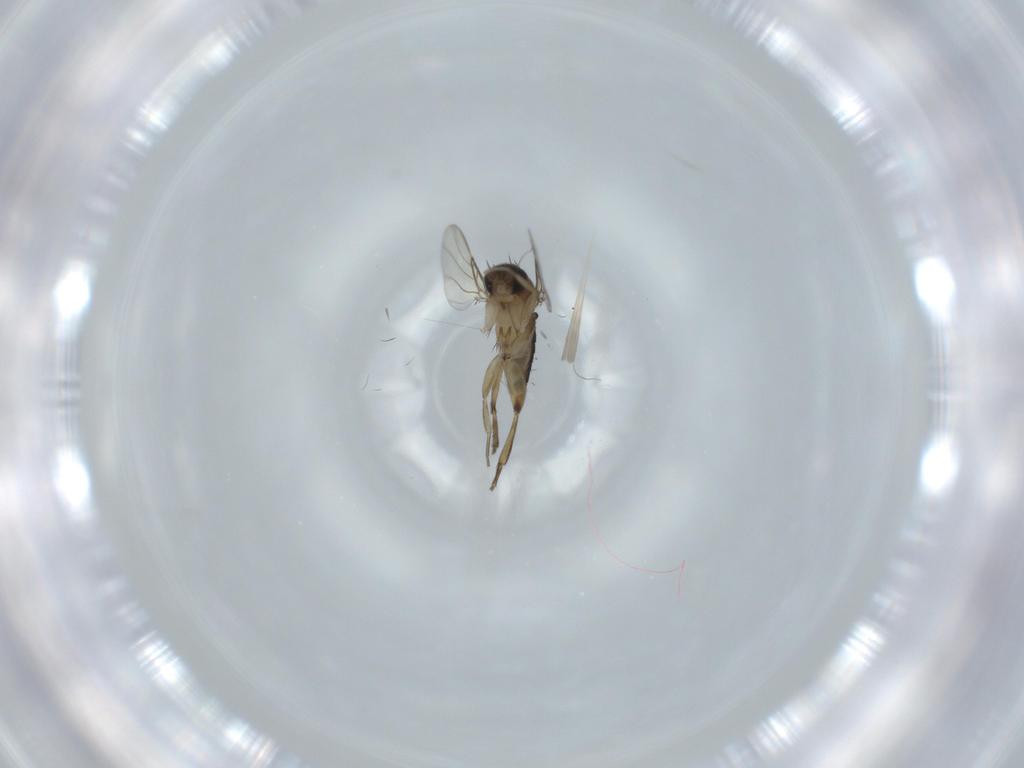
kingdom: Animalia
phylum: Arthropoda
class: Insecta
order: Diptera
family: Phoridae
